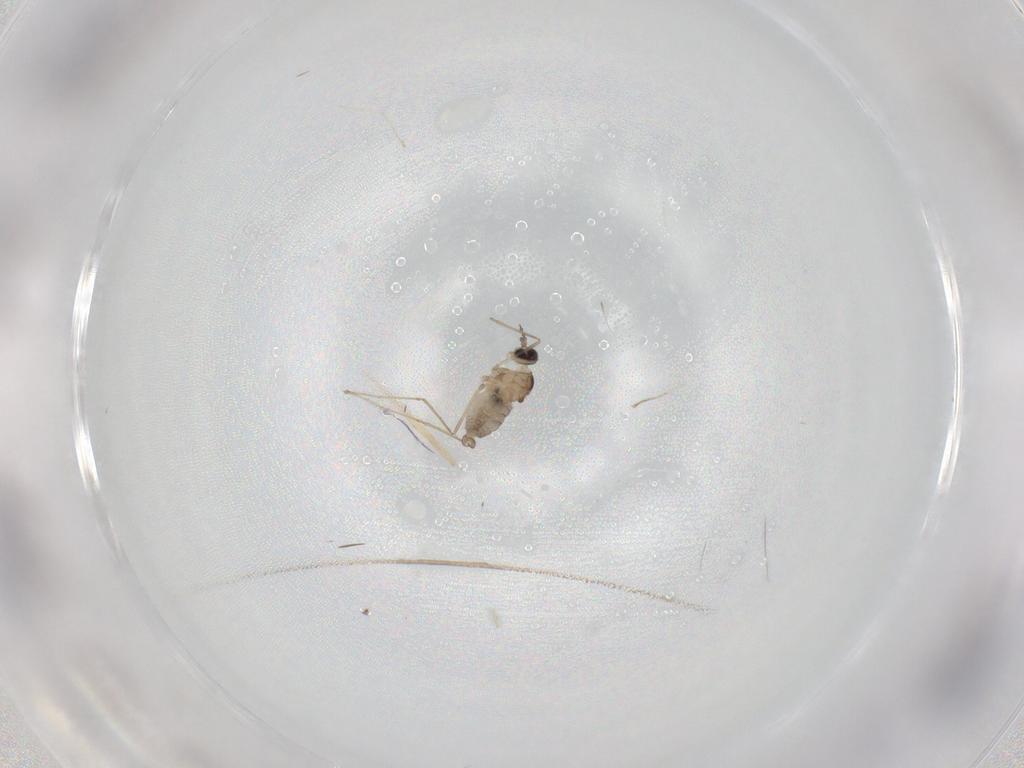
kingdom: Animalia
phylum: Arthropoda
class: Insecta
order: Diptera
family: Cecidomyiidae
